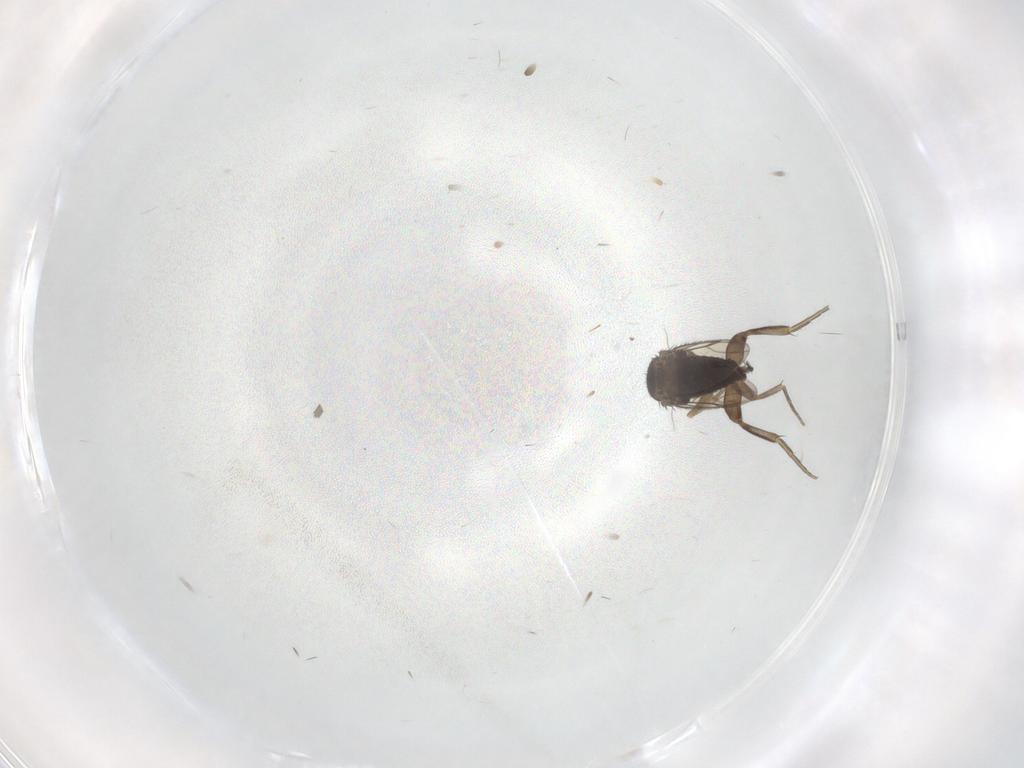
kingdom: Animalia
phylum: Arthropoda
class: Insecta
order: Diptera
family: Phoridae
